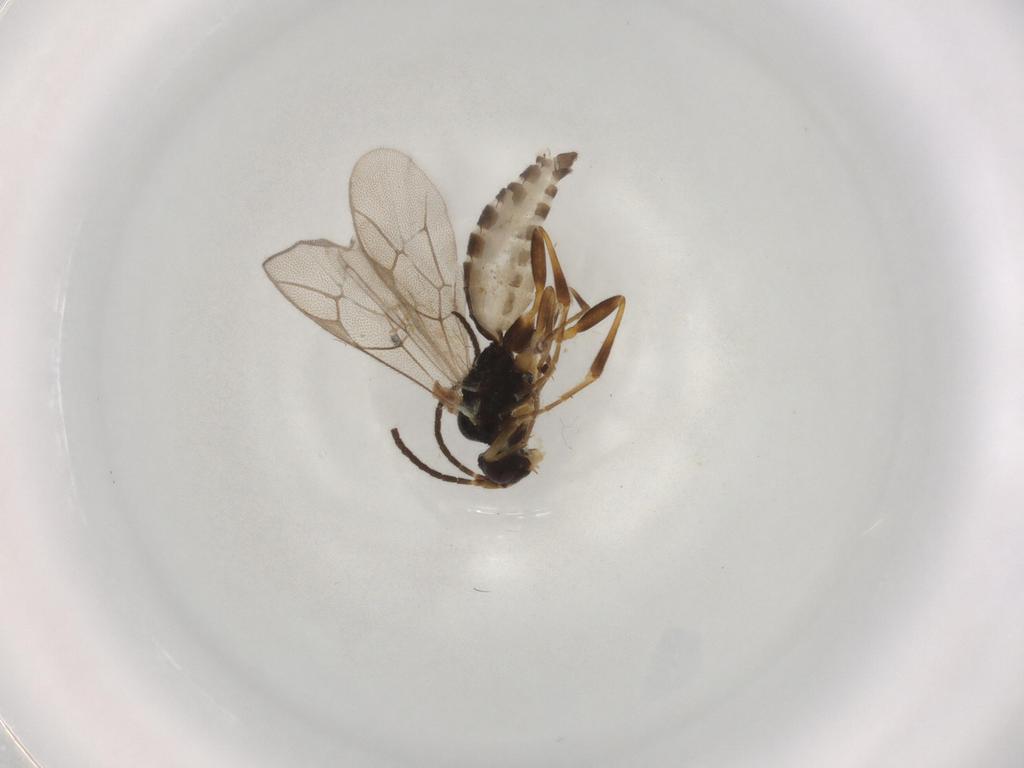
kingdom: Animalia
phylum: Arthropoda
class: Insecta
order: Hymenoptera
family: Ichneumonidae
